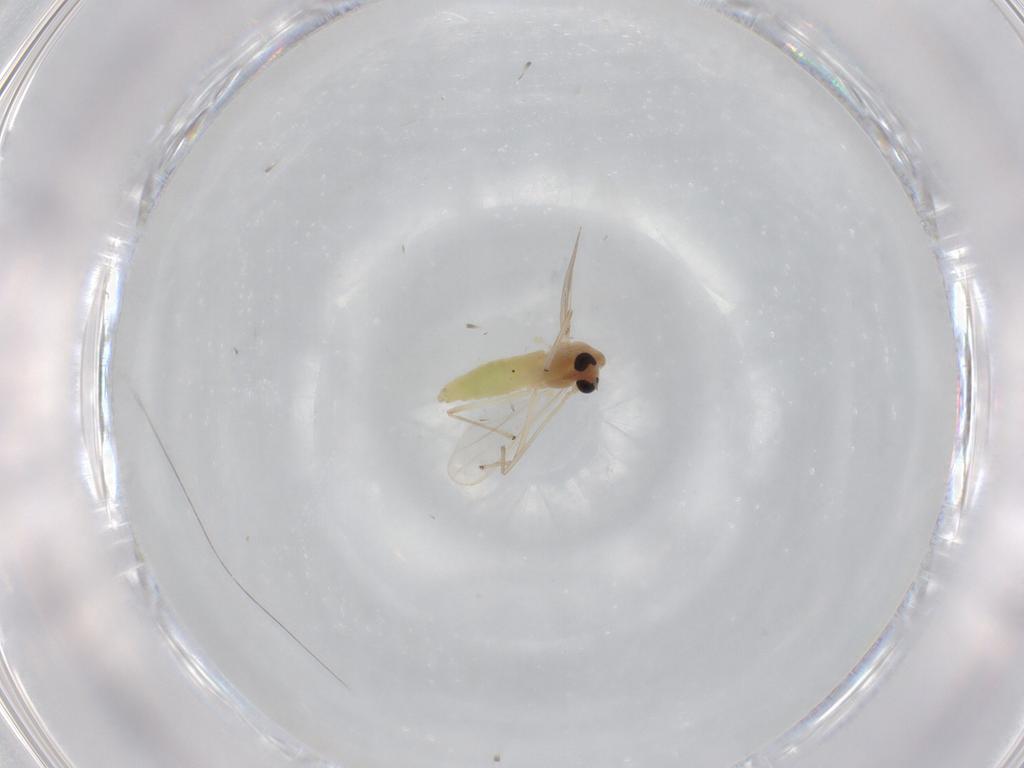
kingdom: Animalia
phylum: Arthropoda
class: Insecta
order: Diptera
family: Chironomidae
